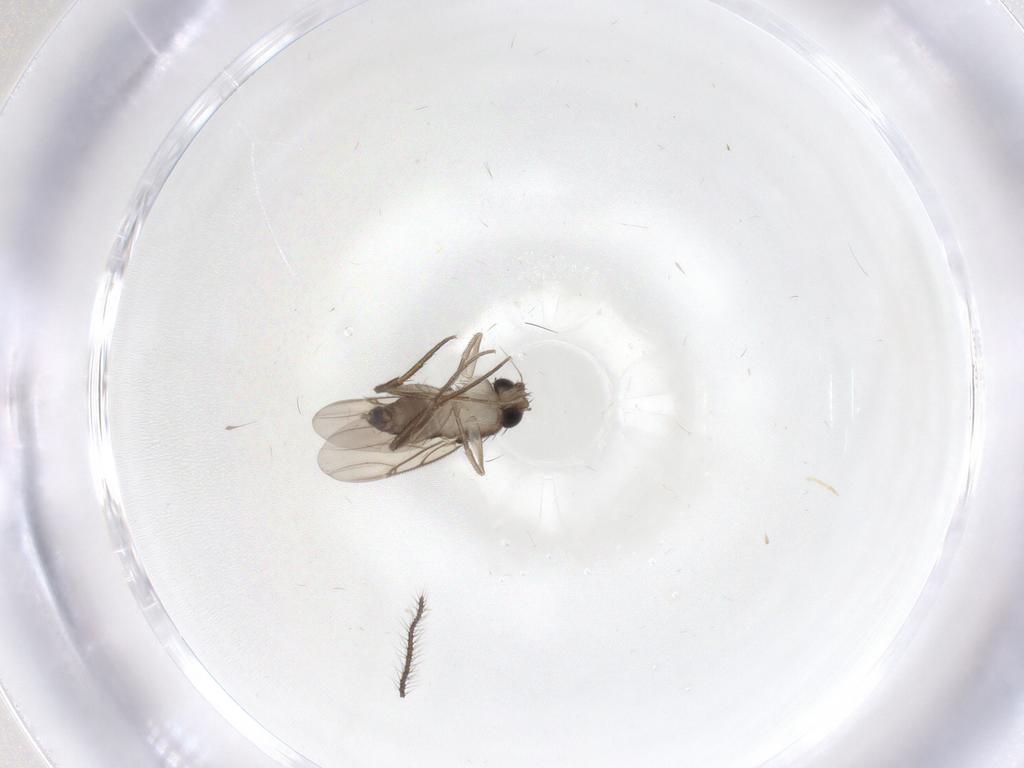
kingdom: Animalia
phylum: Arthropoda
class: Insecta
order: Diptera
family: Phoridae
